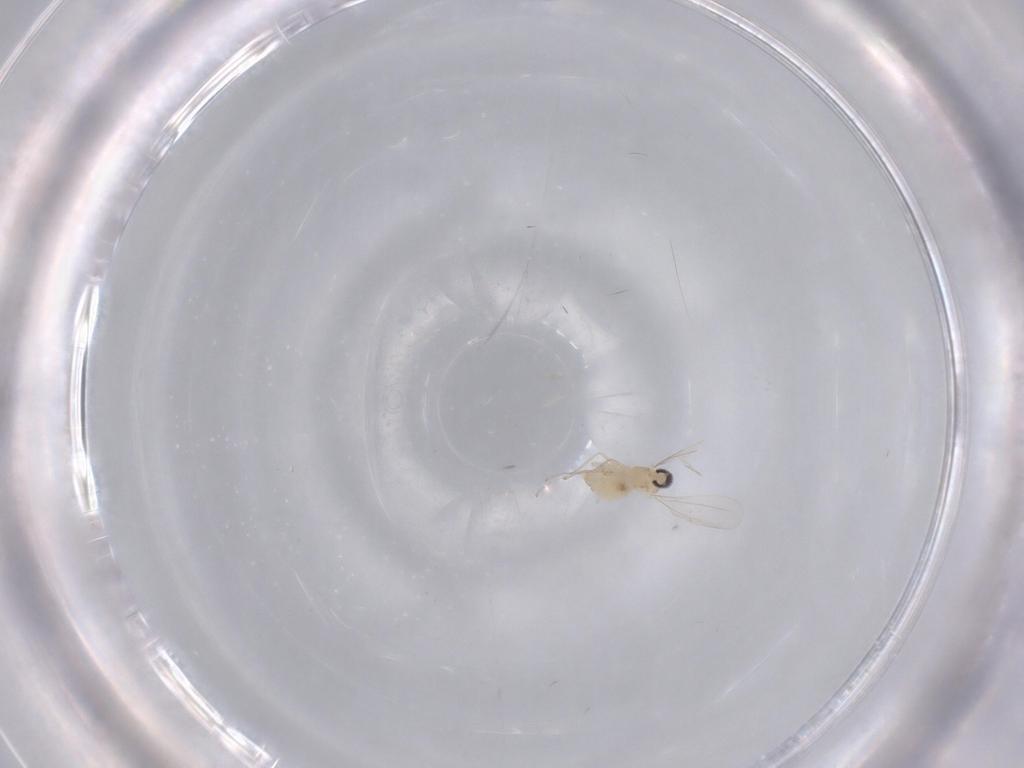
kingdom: Animalia
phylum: Arthropoda
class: Insecta
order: Diptera
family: Cecidomyiidae
